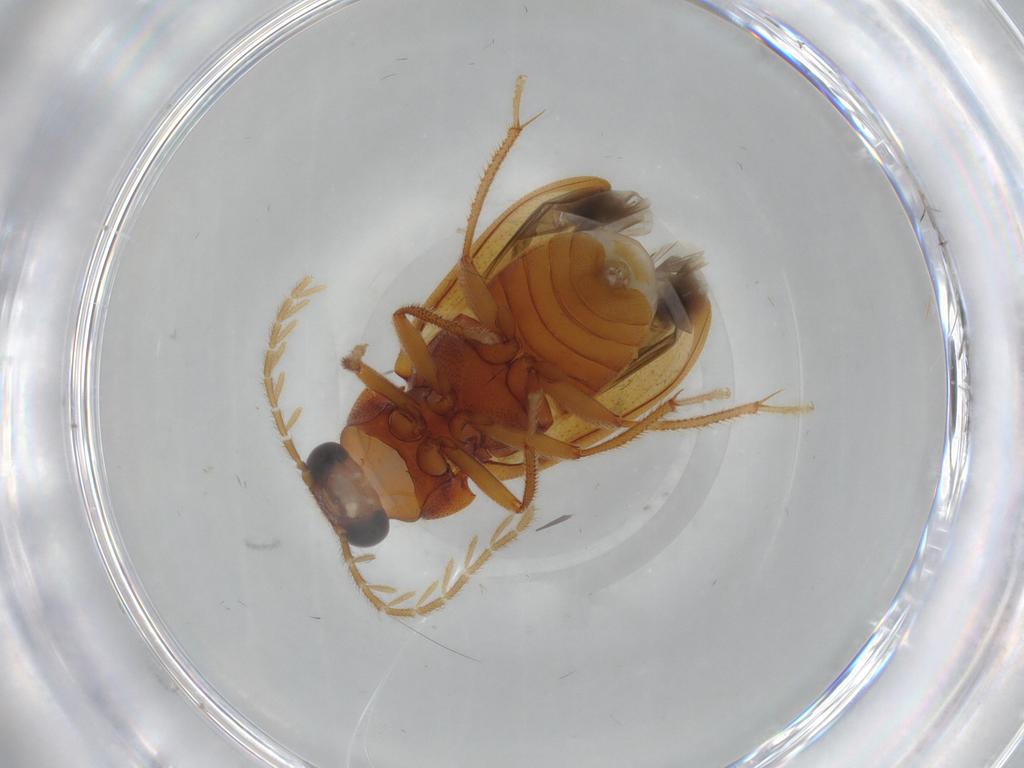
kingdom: Animalia
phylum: Arthropoda
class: Insecta
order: Coleoptera
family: Ptilodactylidae
